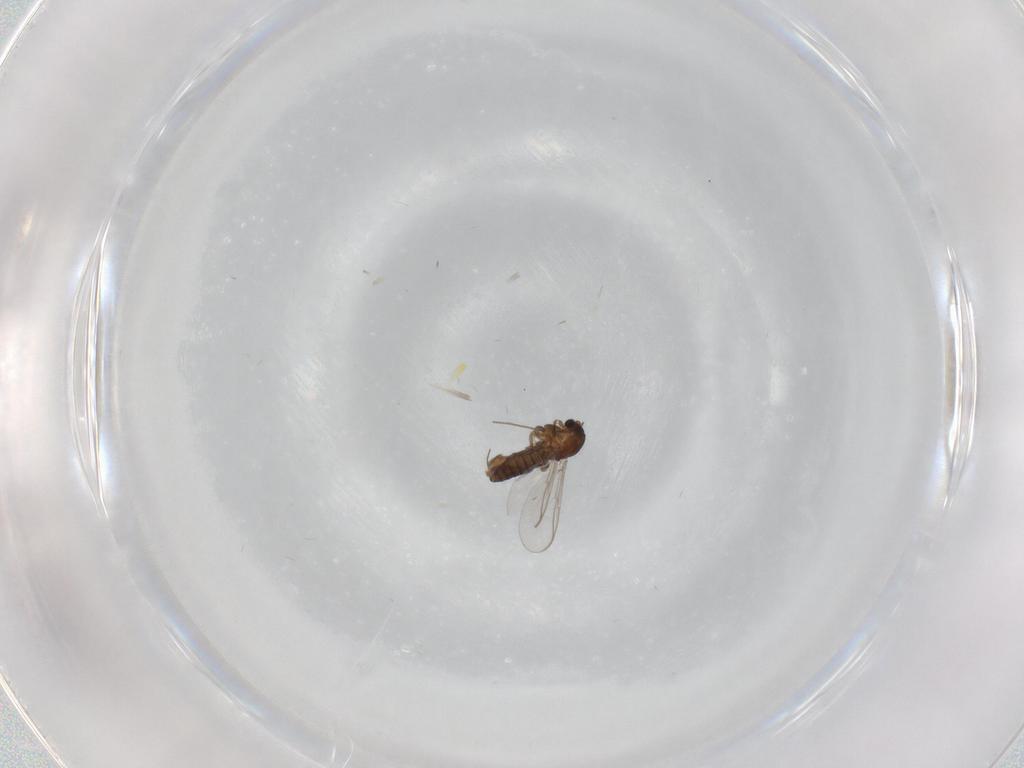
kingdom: Animalia
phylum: Arthropoda
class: Insecta
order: Diptera
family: Chironomidae
